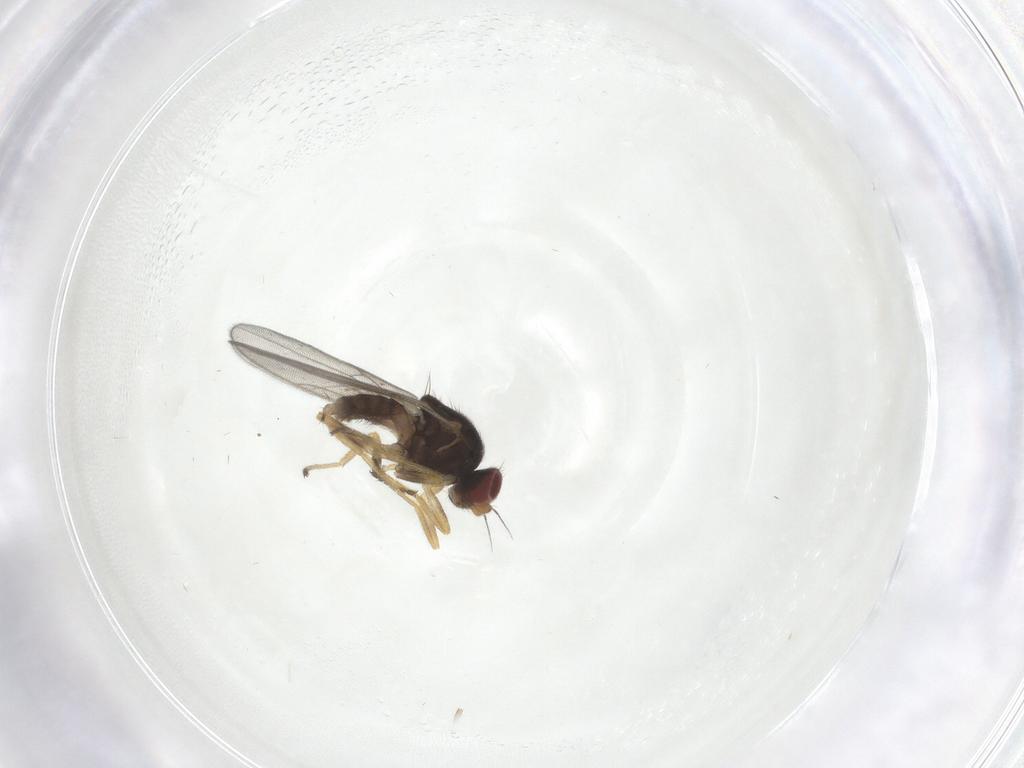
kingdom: Animalia
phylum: Arthropoda
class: Insecta
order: Diptera
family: Chloropidae
